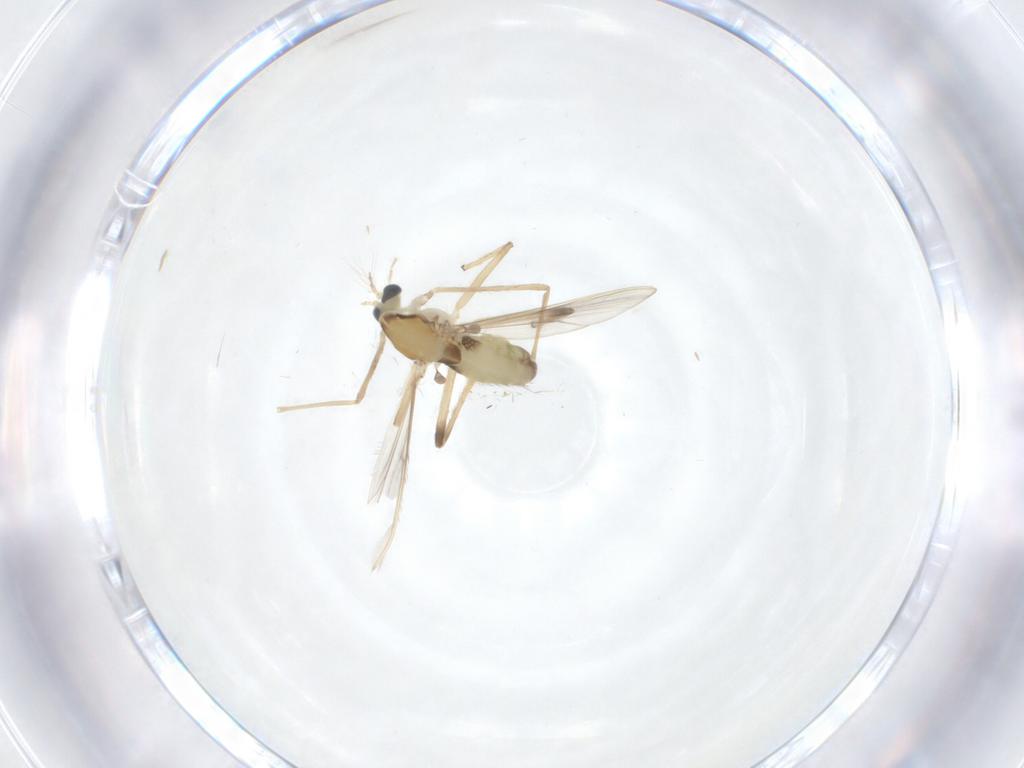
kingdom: Animalia
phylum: Arthropoda
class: Insecta
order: Diptera
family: Chironomidae
